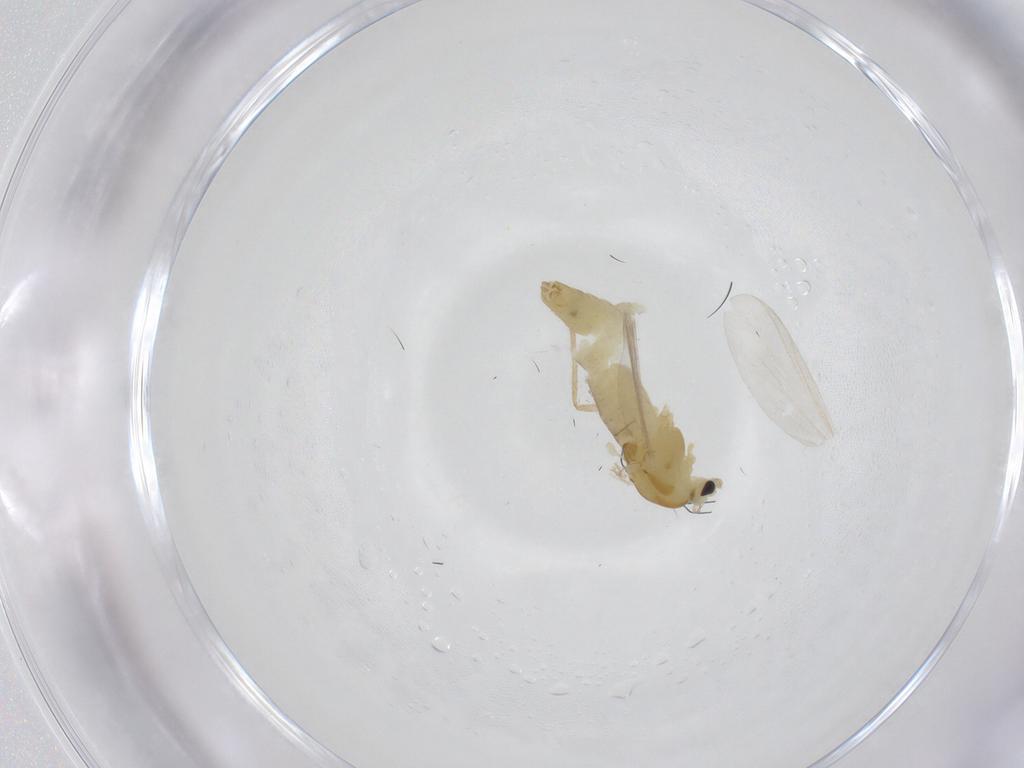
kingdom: Animalia
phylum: Arthropoda
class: Insecta
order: Diptera
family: Chironomidae
